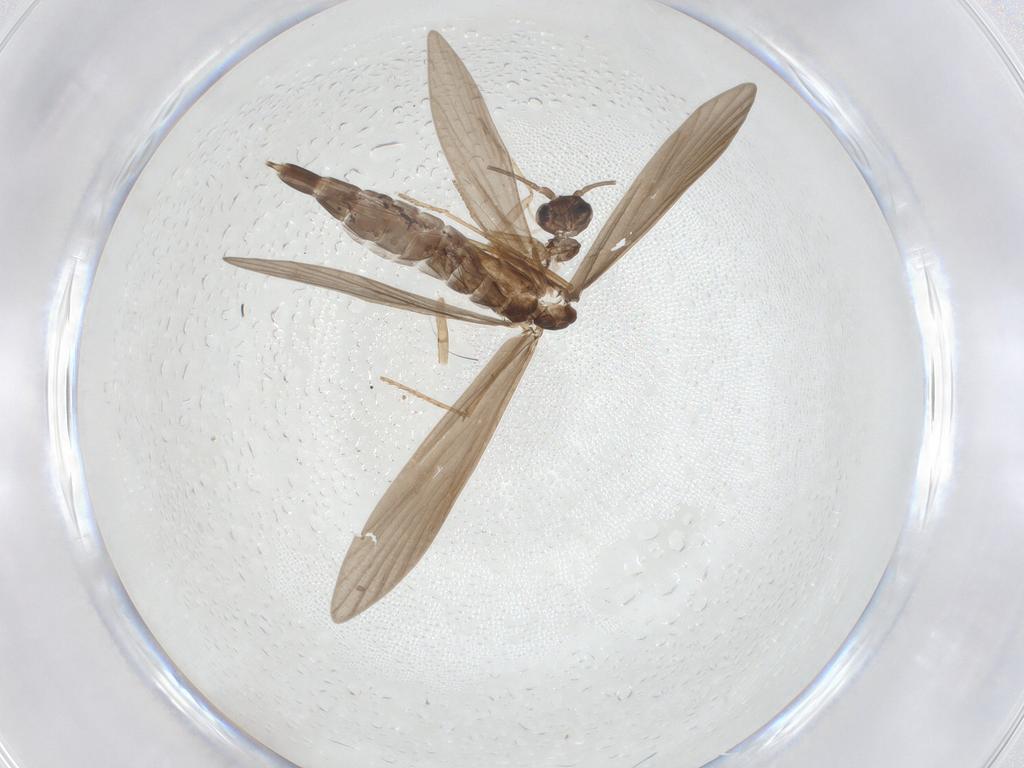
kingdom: Animalia
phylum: Arthropoda
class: Insecta
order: Trichoptera
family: Xiphocentronidae
